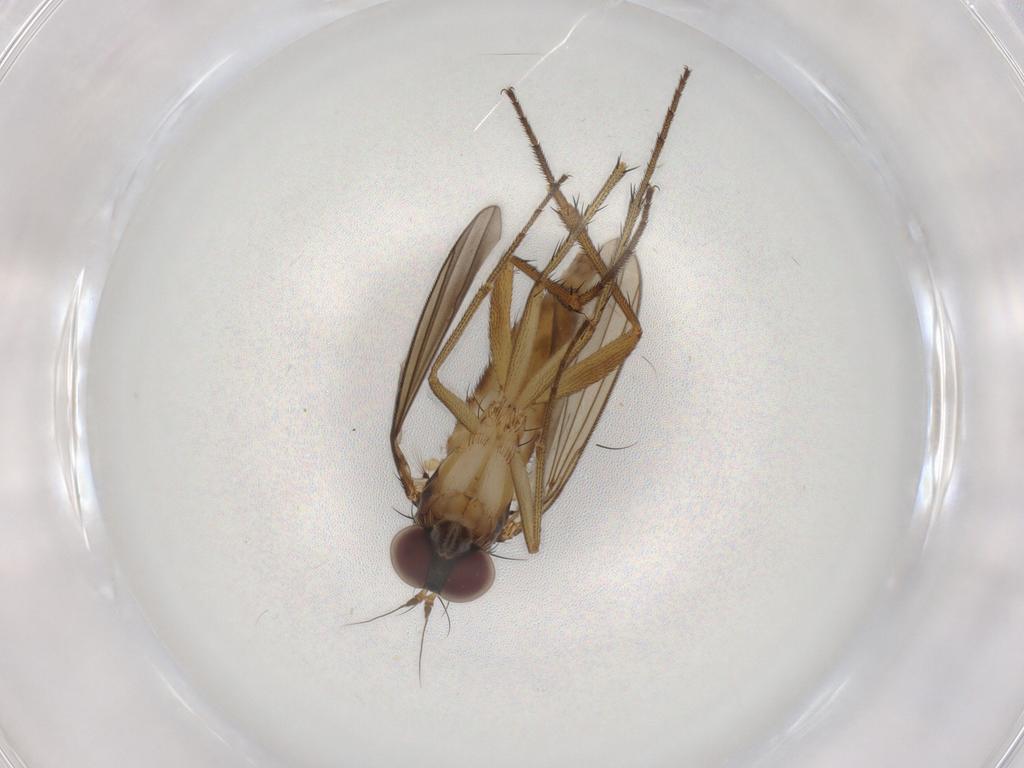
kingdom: Animalia
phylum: Arthropoda
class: Insecta
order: Diptera
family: Dolichopodidae
